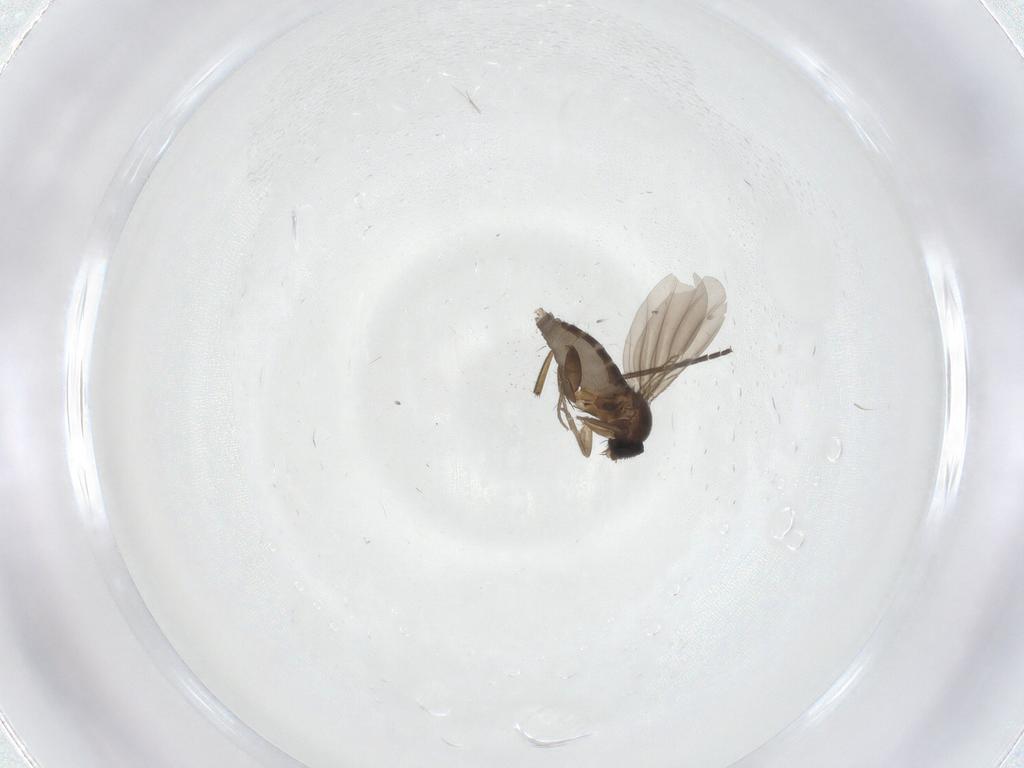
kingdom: Animalia
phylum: Arthropoda
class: Insecta
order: Diptera
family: Phoridae
